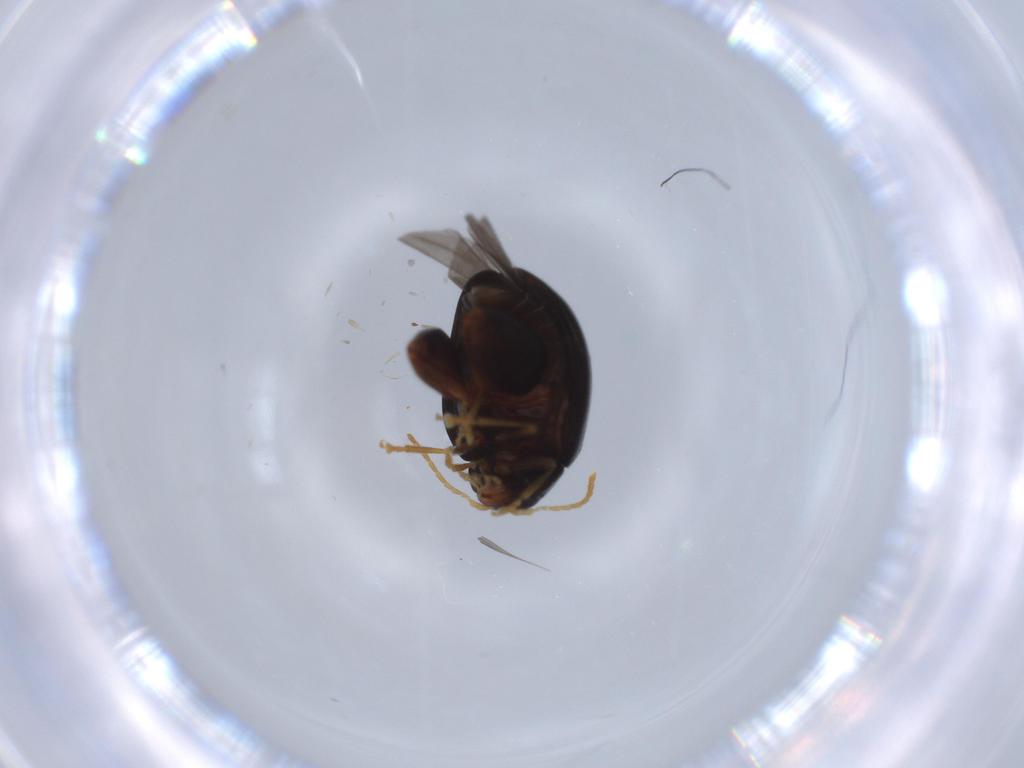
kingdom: Animalia
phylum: Arthropoda
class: Insecta
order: Coleoptera
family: Chrysomelidae
